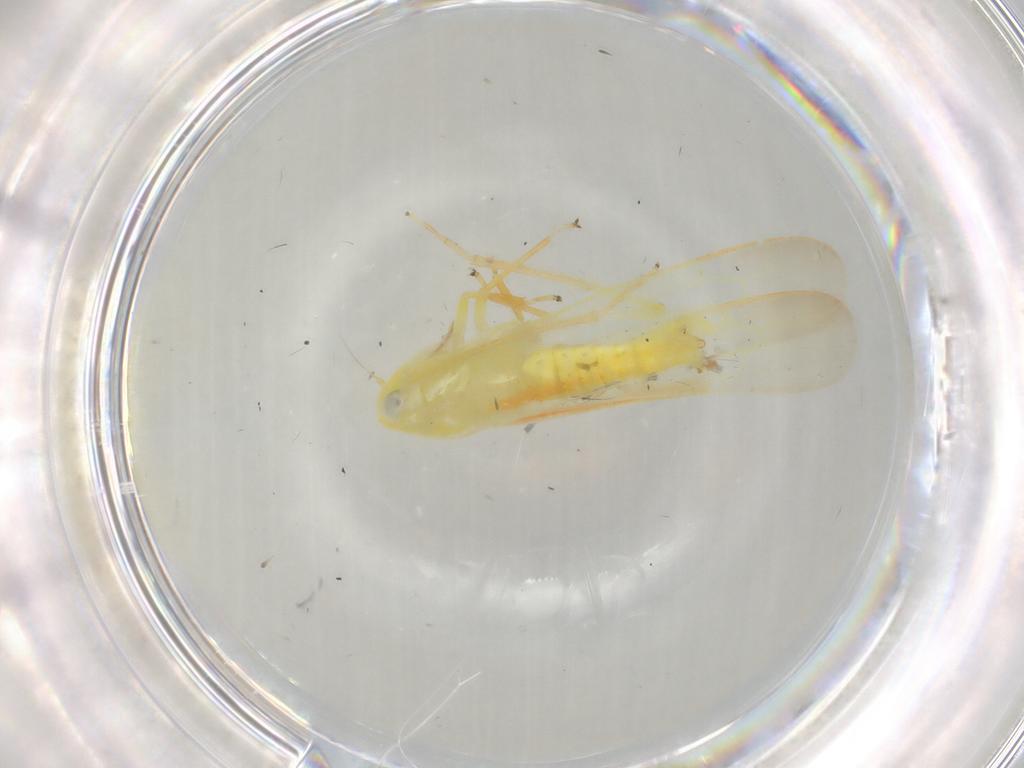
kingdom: Animalia
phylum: Arthropoda
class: Insecta
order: Hemiptera
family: Cicadellidae
